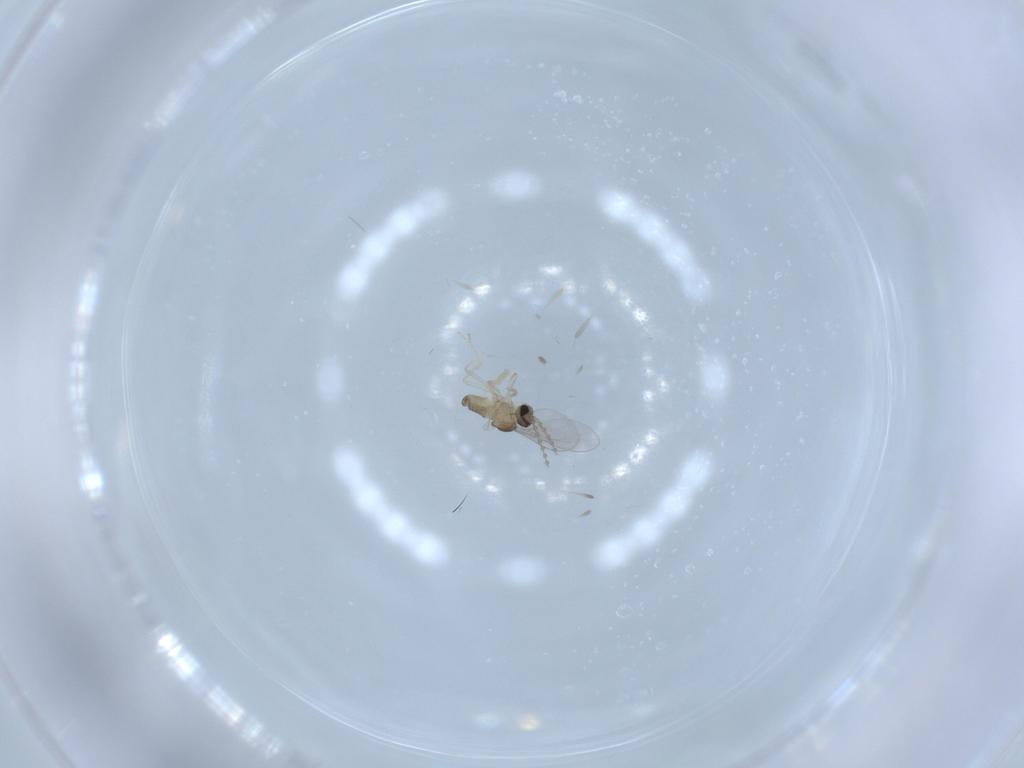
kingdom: Animalia
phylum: Arthropoda
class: Insecta
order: Diptera
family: Cecidomyiidae
